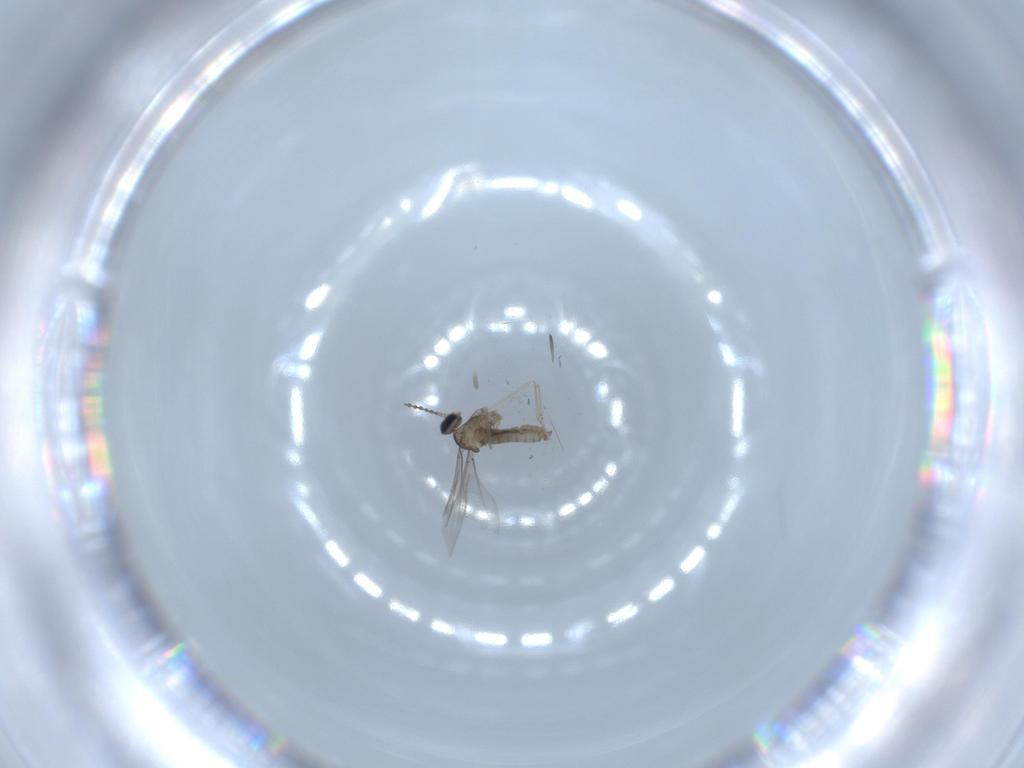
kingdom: Animalia
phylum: Arthropoda
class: Insecta
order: Diptera
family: Cecidomyiidae
